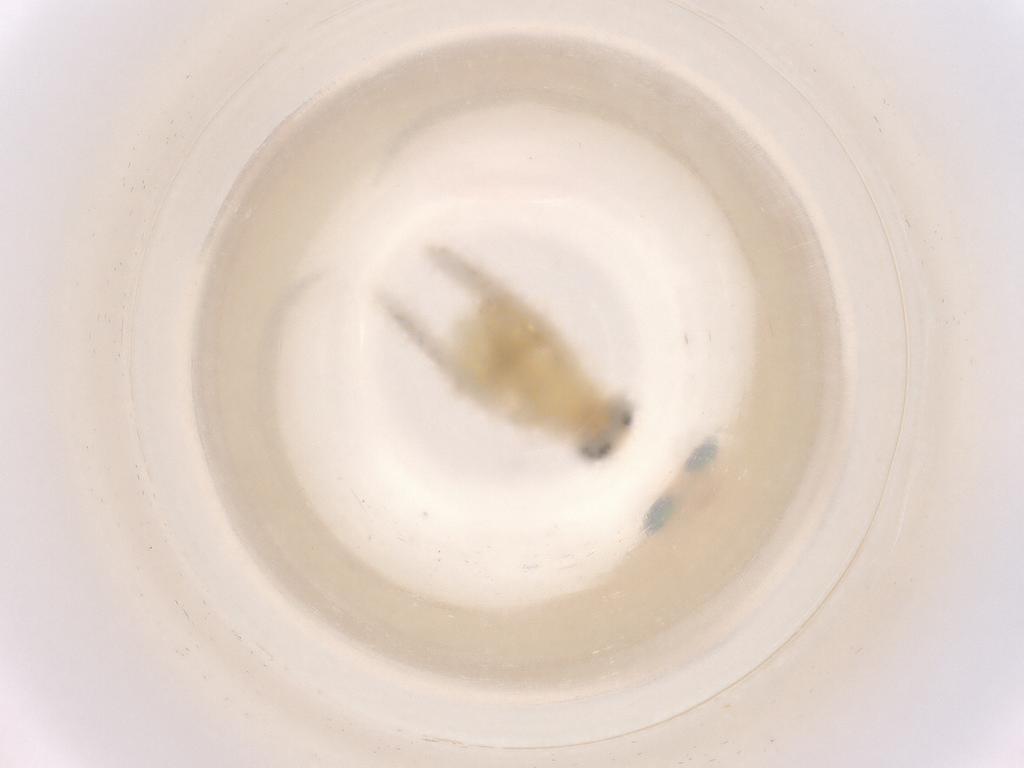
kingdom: Animalia
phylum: Arthropoda
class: Insecta
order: Diptera
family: Chyromyidae
